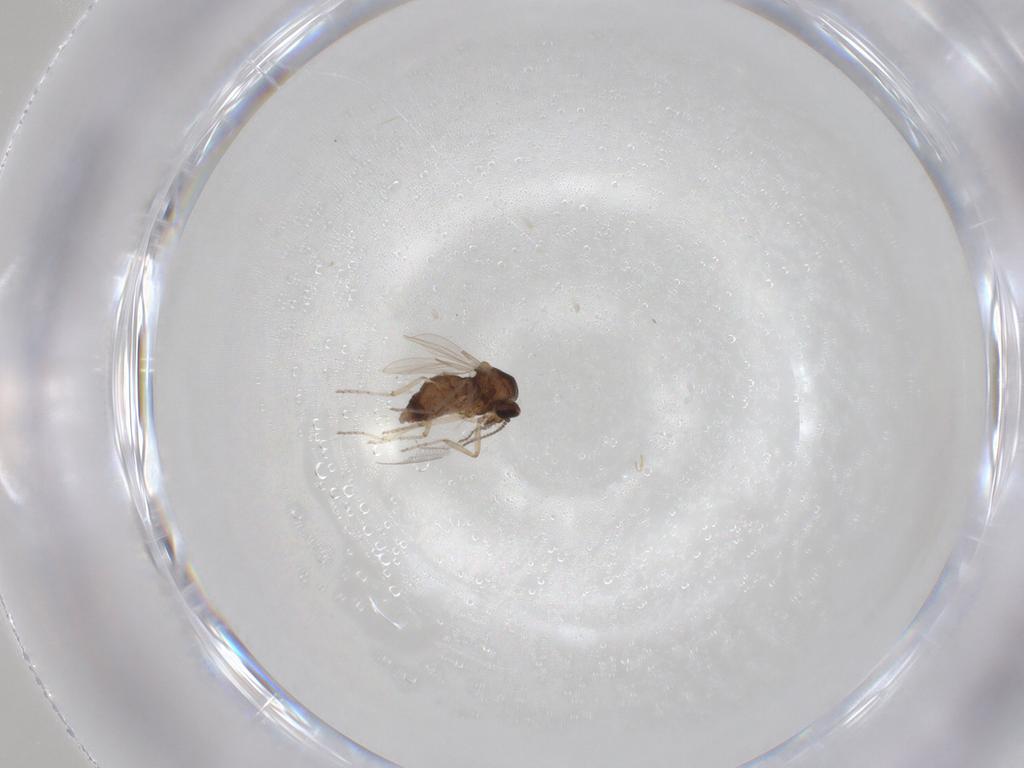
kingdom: Animalia
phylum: Arthropoda
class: Insecta
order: Diptera
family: Ceratopogonidae
